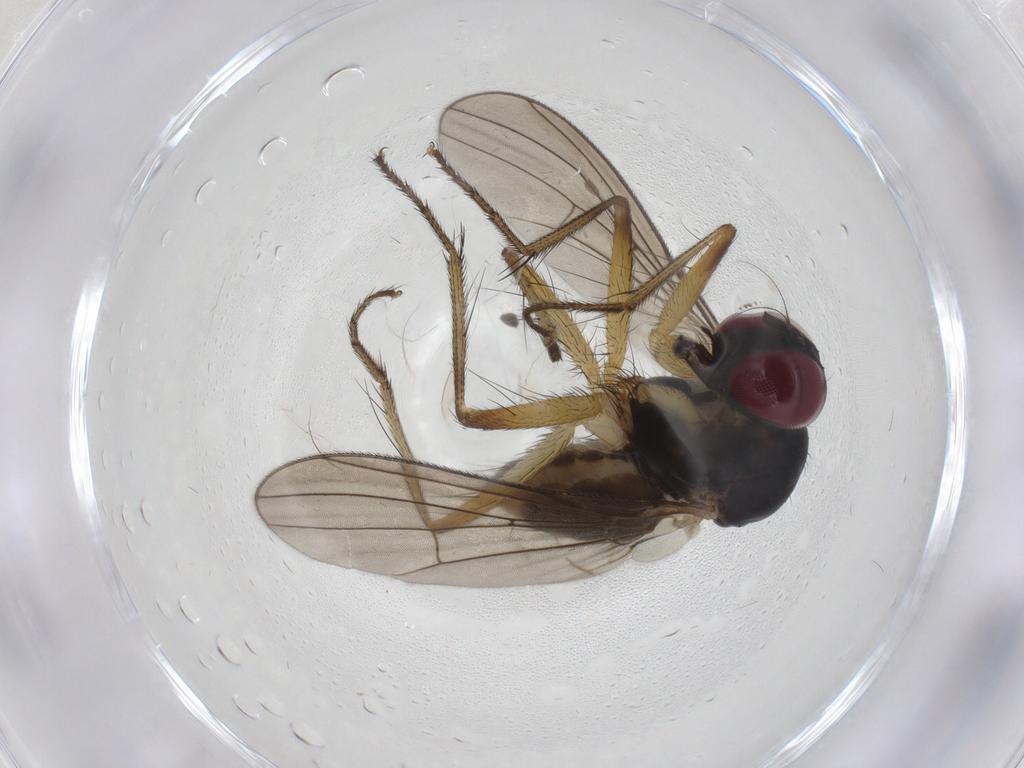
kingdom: Animalia
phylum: Arthropoda
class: Insecta
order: Diptera
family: Anthomyiidae
